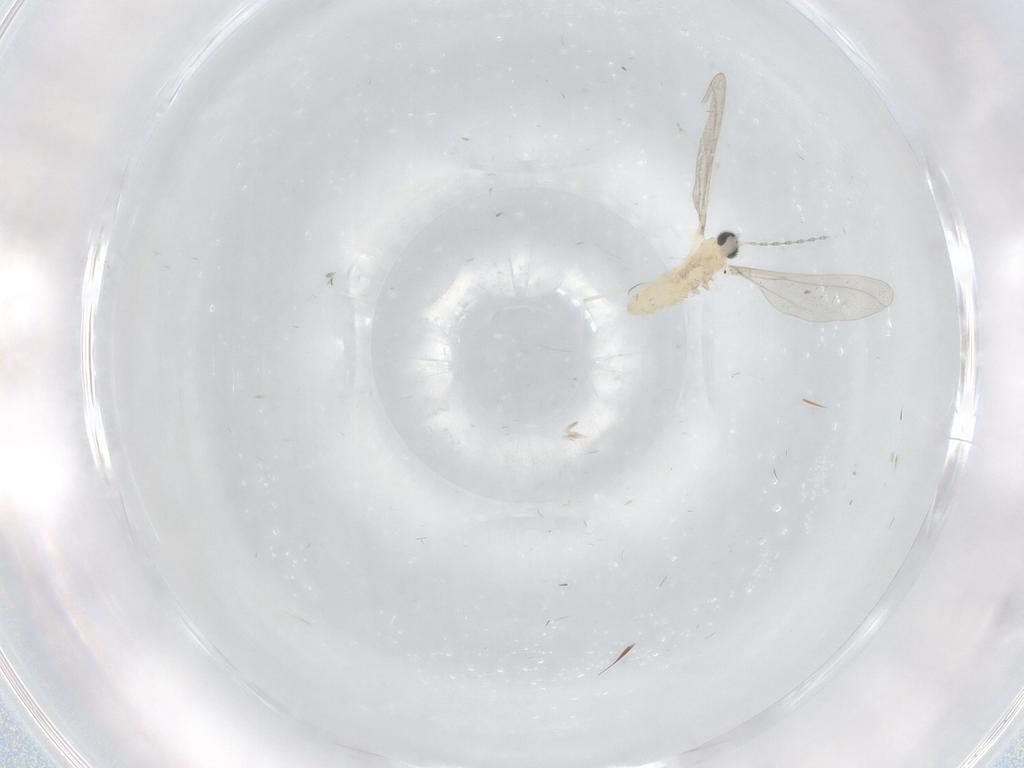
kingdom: Animalia
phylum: Arthropoda
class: Insecta
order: Diptera
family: Cecidomyiidae
